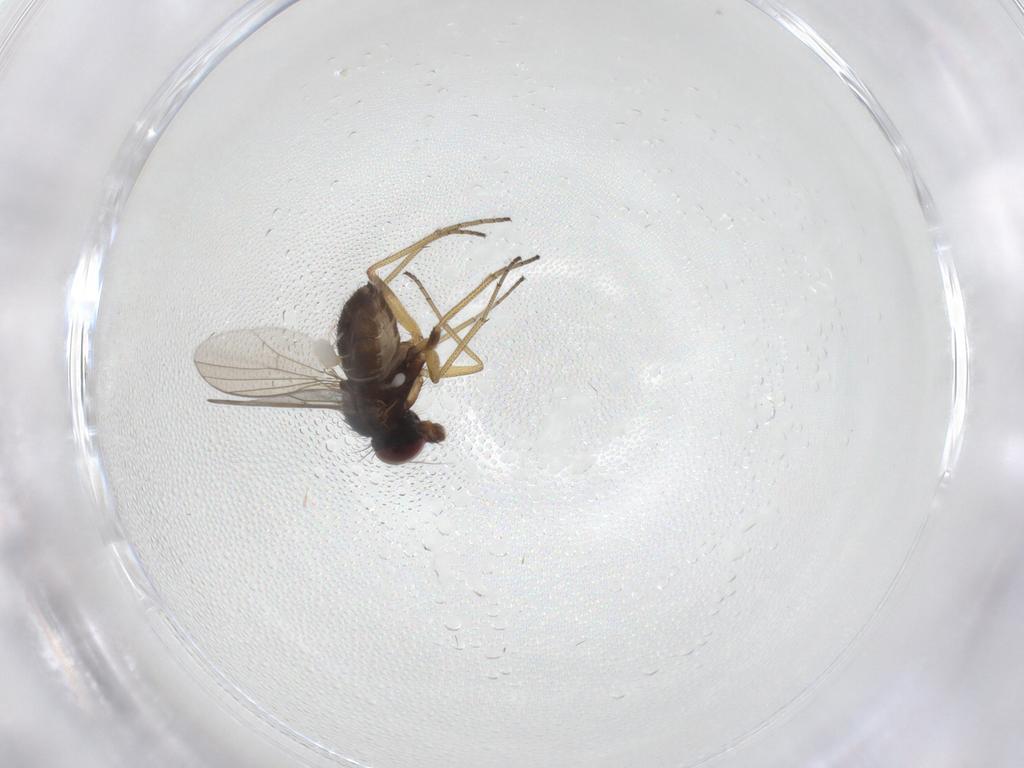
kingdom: Animalia
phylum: Arthropoda
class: Insecta
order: Diptera
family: Dolichopodidae
